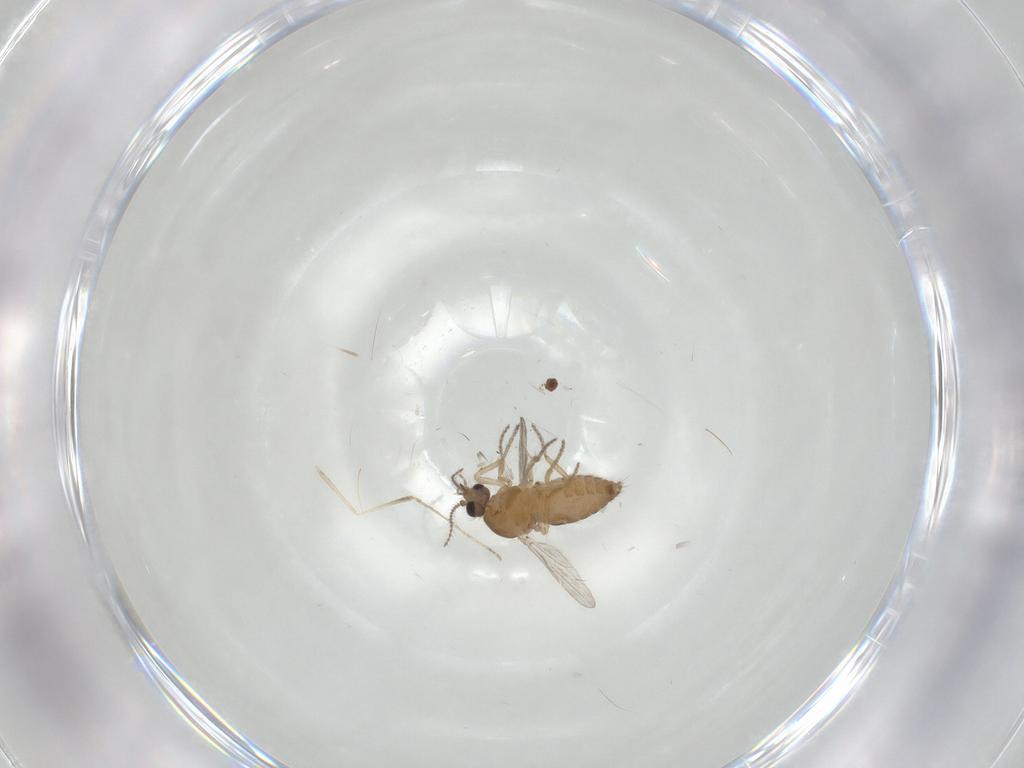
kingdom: Animalia
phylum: Arthropoda
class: Insecta
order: Diptera
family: Ceratopogonidae
